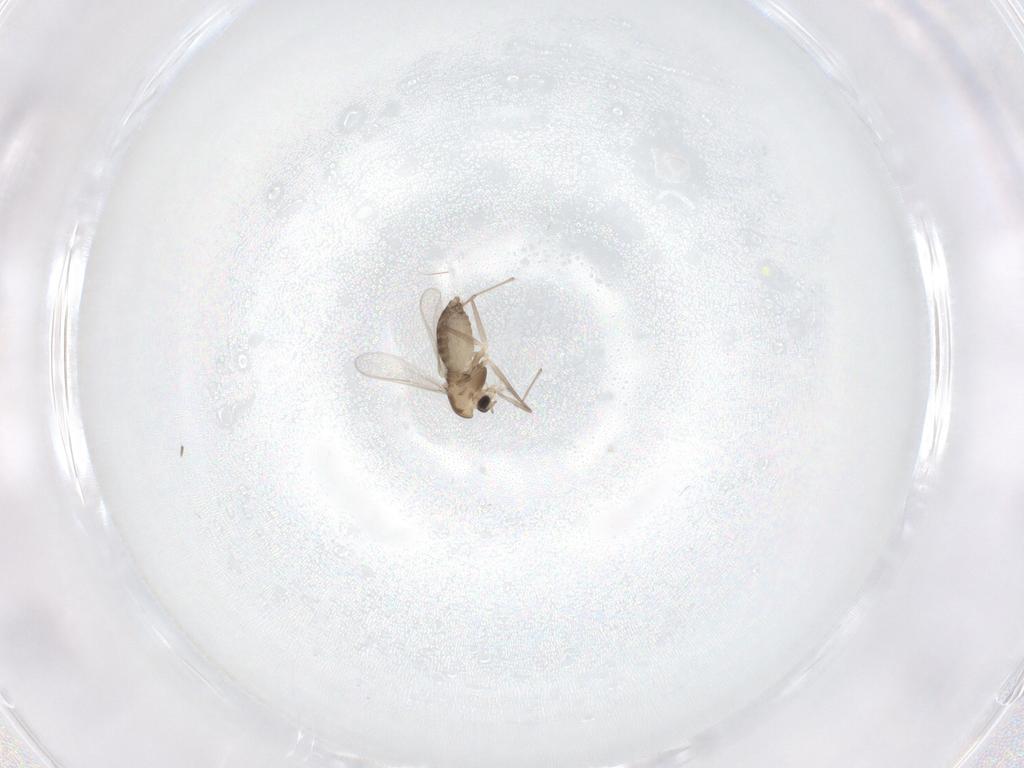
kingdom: Animalia
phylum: Arthropoda
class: Insecta
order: Diptera
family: Chironomidae
